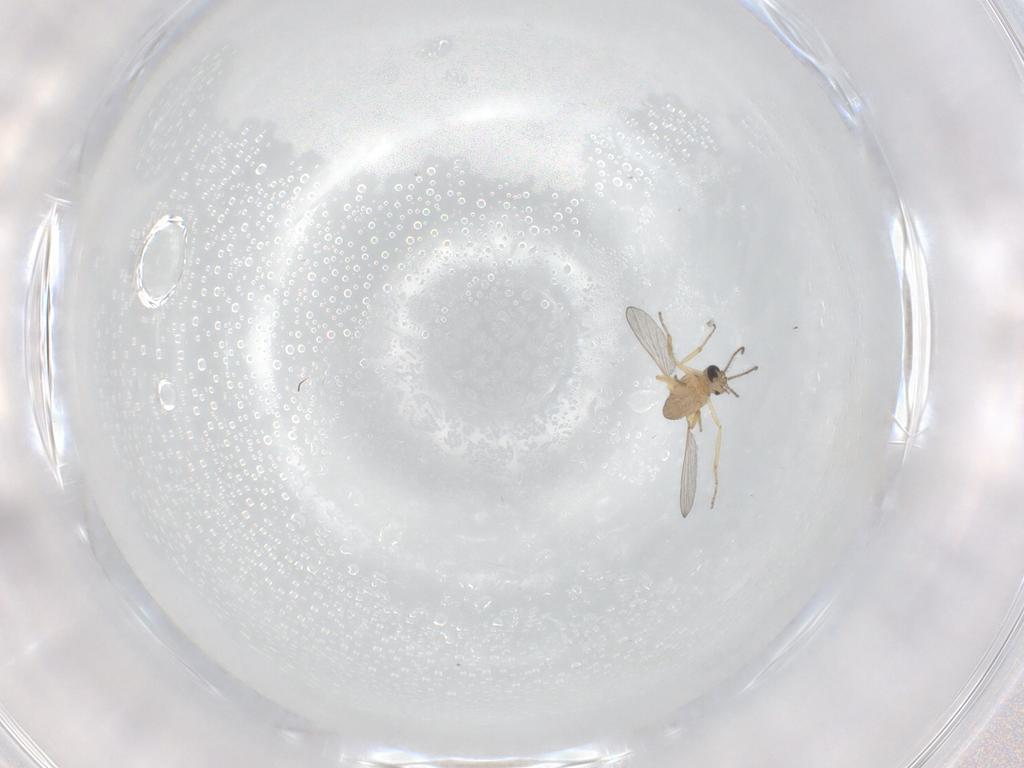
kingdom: Animalia
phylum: Arthropoda
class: Insecta
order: Diptera
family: Ceratopogonidae
